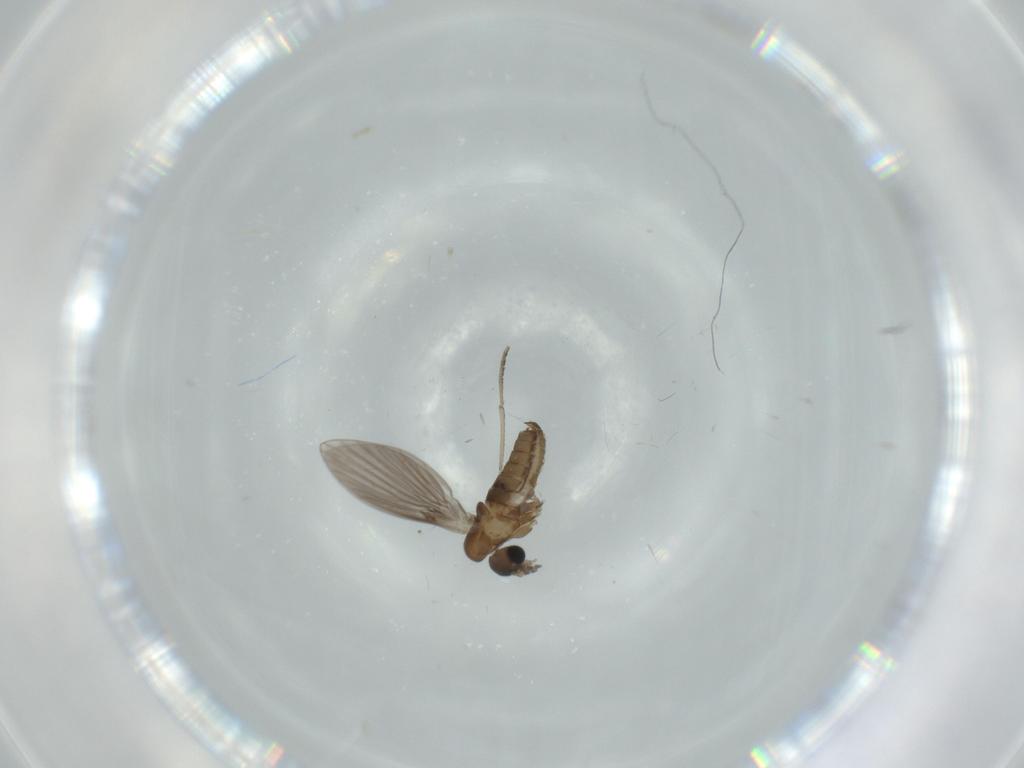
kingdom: Animalia
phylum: Arthropoda
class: Insecta
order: Diptera
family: Psychodidae
